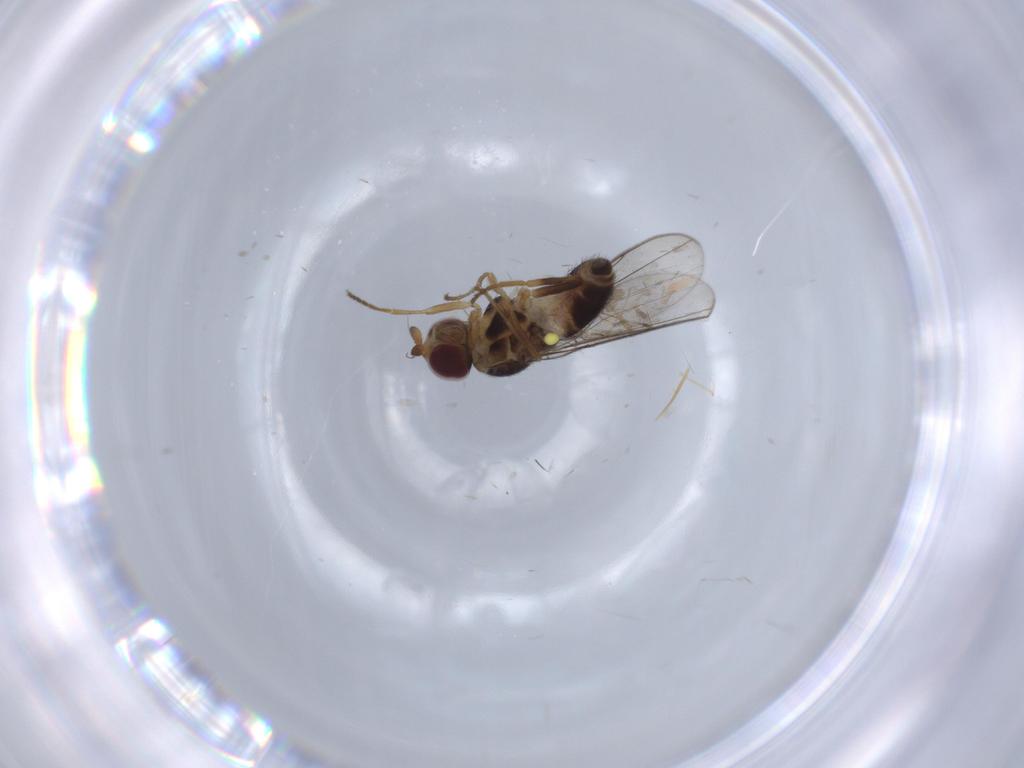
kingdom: Animalia
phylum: Arthropoda
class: Insecta
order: Diptera
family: Chloropidae
